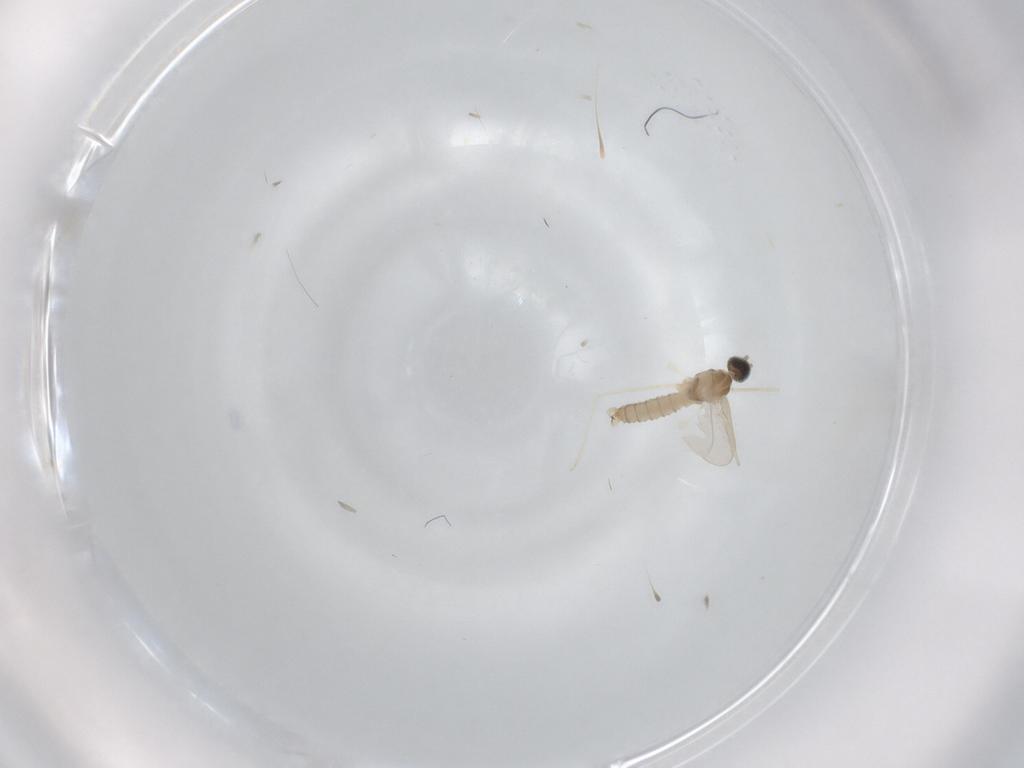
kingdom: Animalia
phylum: Arthropoda
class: Insecta
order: Diptera
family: Cecidomyiidae
